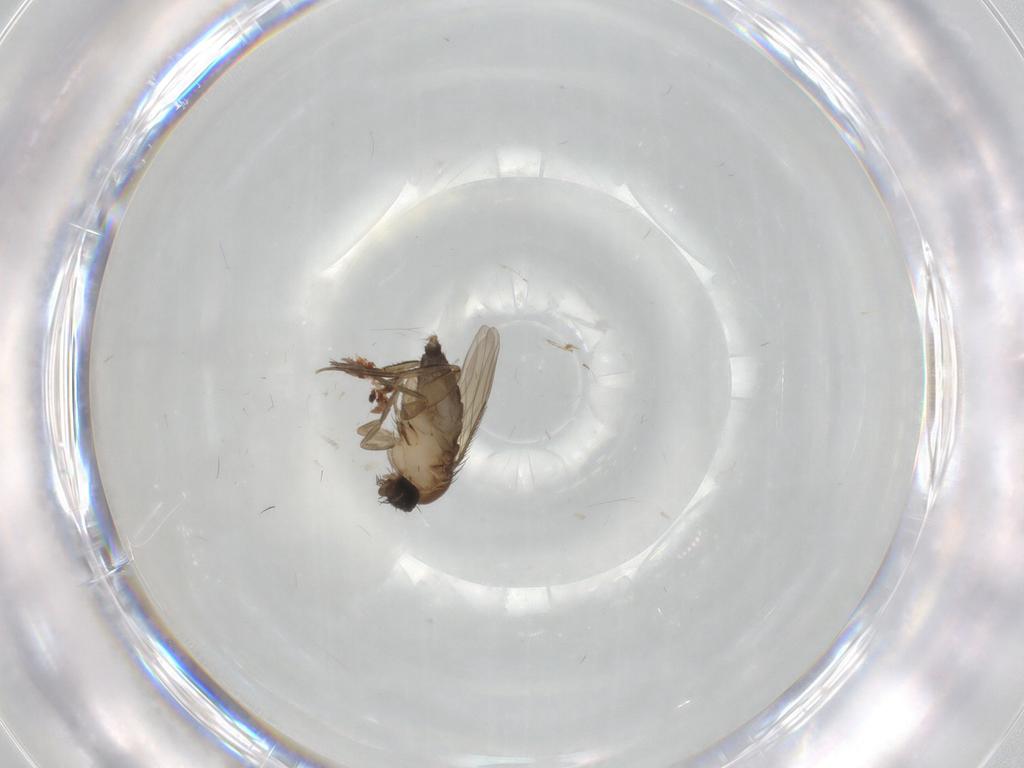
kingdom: Animalia
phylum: Arthropoda
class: Insecta
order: Diptera
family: Phoridae
